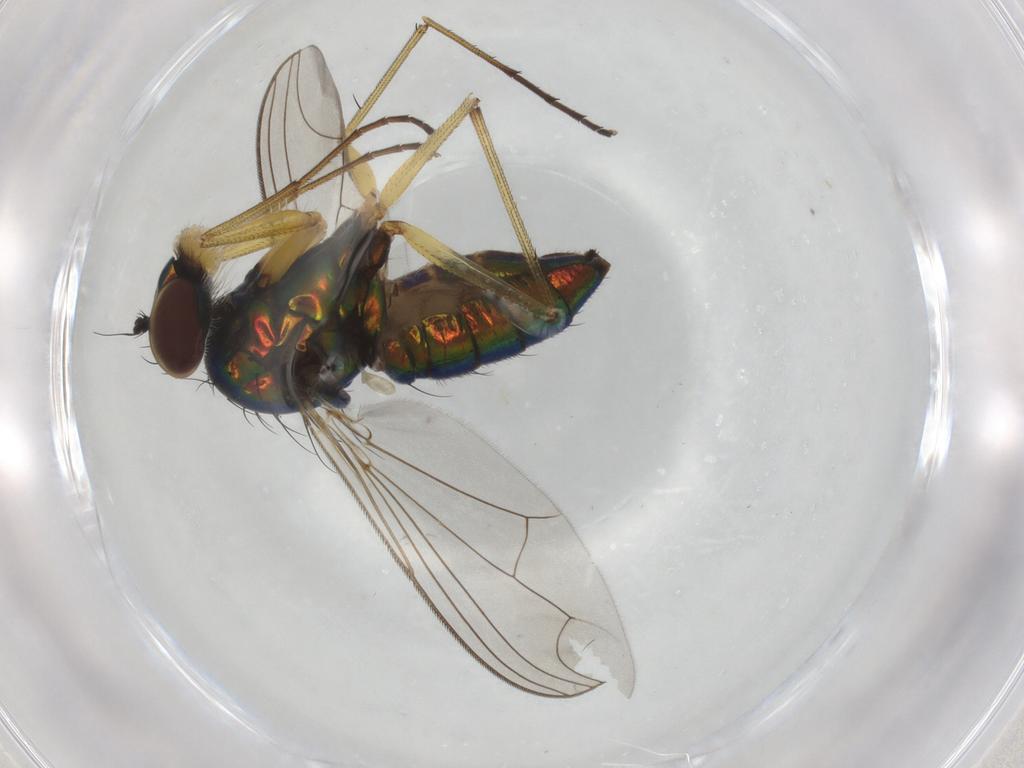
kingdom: Animalia
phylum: Arthropoda
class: Insecta
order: Diptera
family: Dolichopodidae
